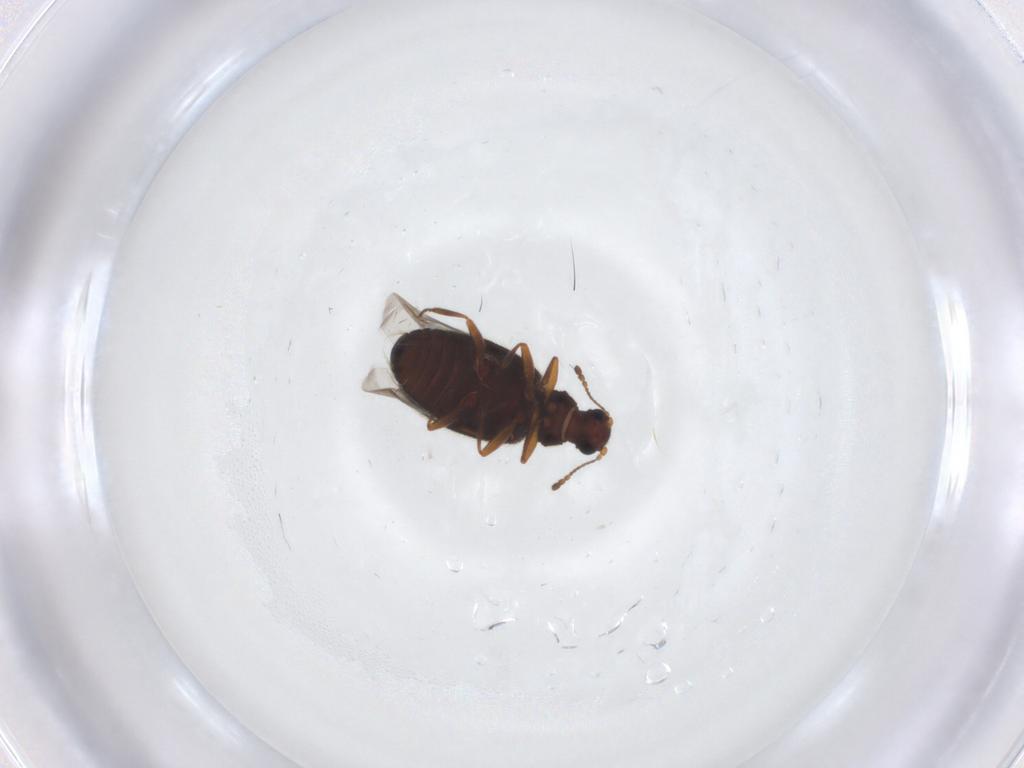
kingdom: Animalia
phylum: Arthropoda
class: Insecta
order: Coleoptera
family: Latridiidae
